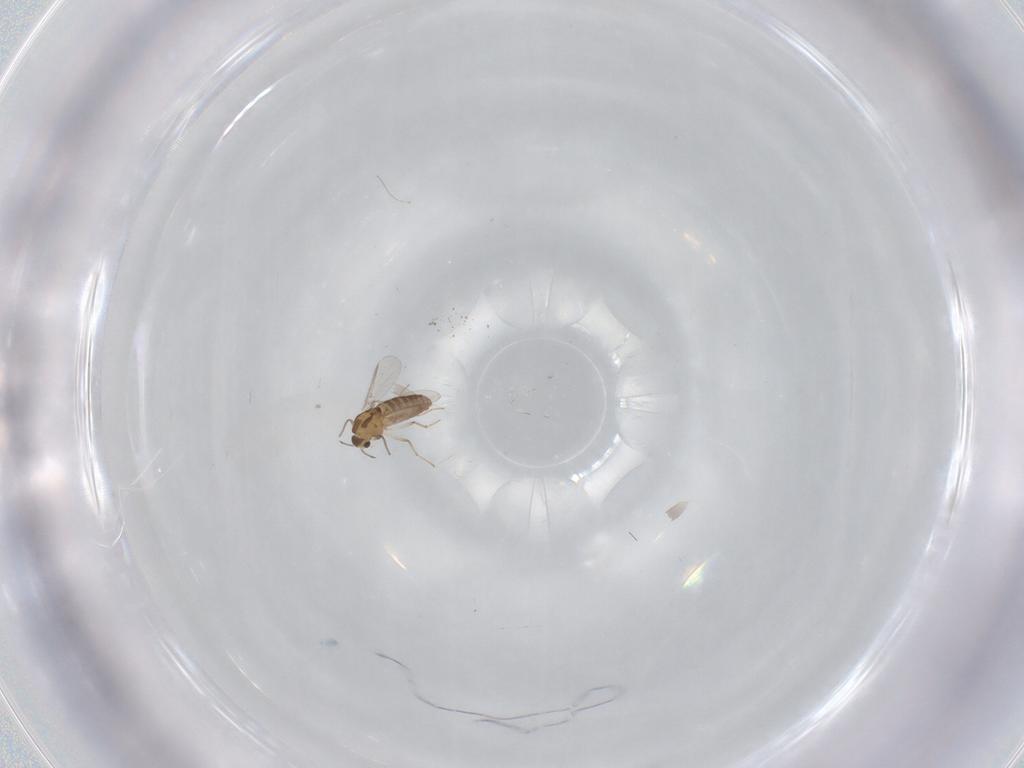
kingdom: Animalia
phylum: Arthropoda
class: Insecta
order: Diptera
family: Chironomidae
